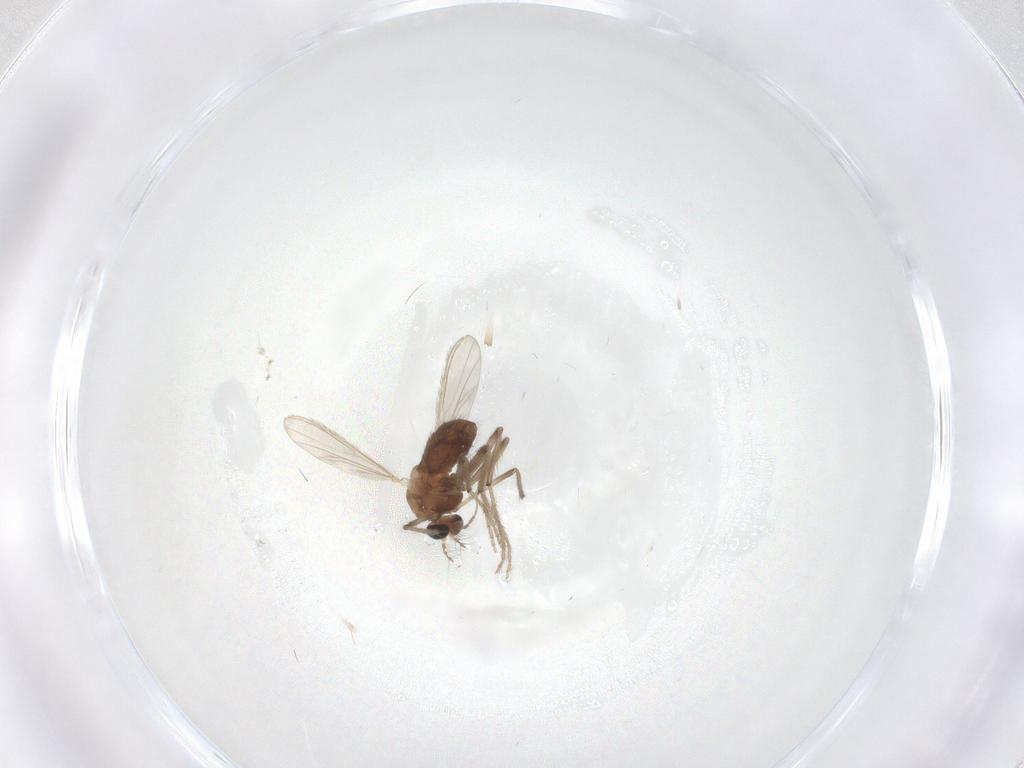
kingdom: Animalia
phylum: Arthropoda
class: Insecta
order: Diptera
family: Chironomidae
